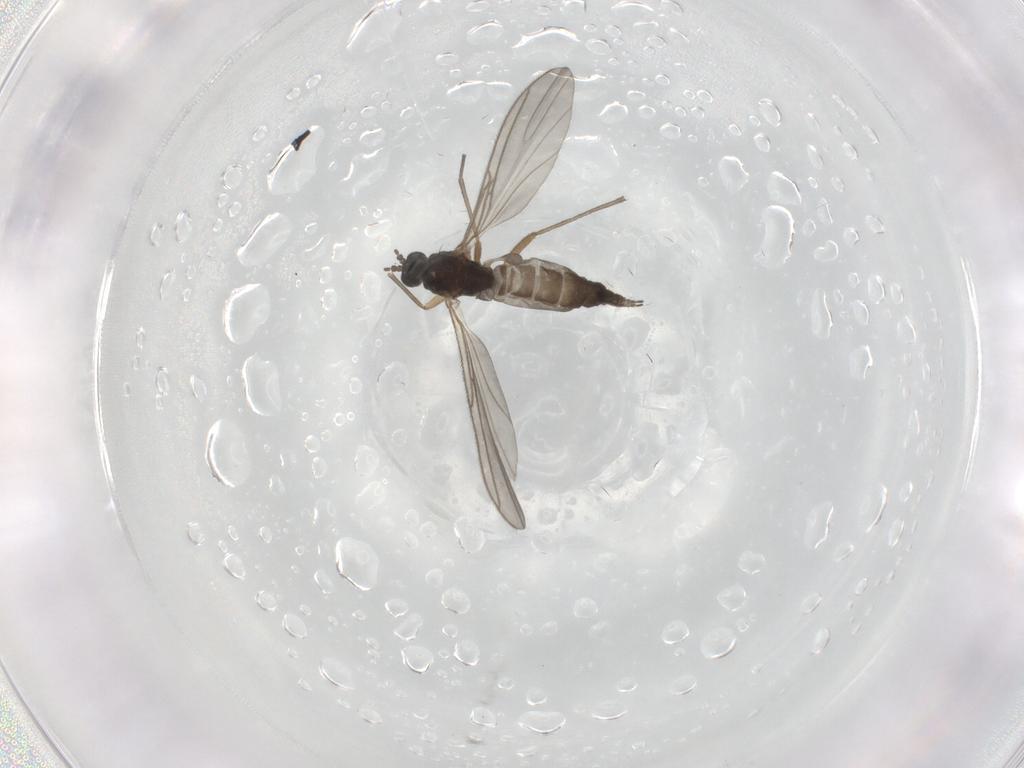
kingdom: Animalia
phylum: Arthropoda
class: Insecta
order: Diptera
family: Sciaridae
